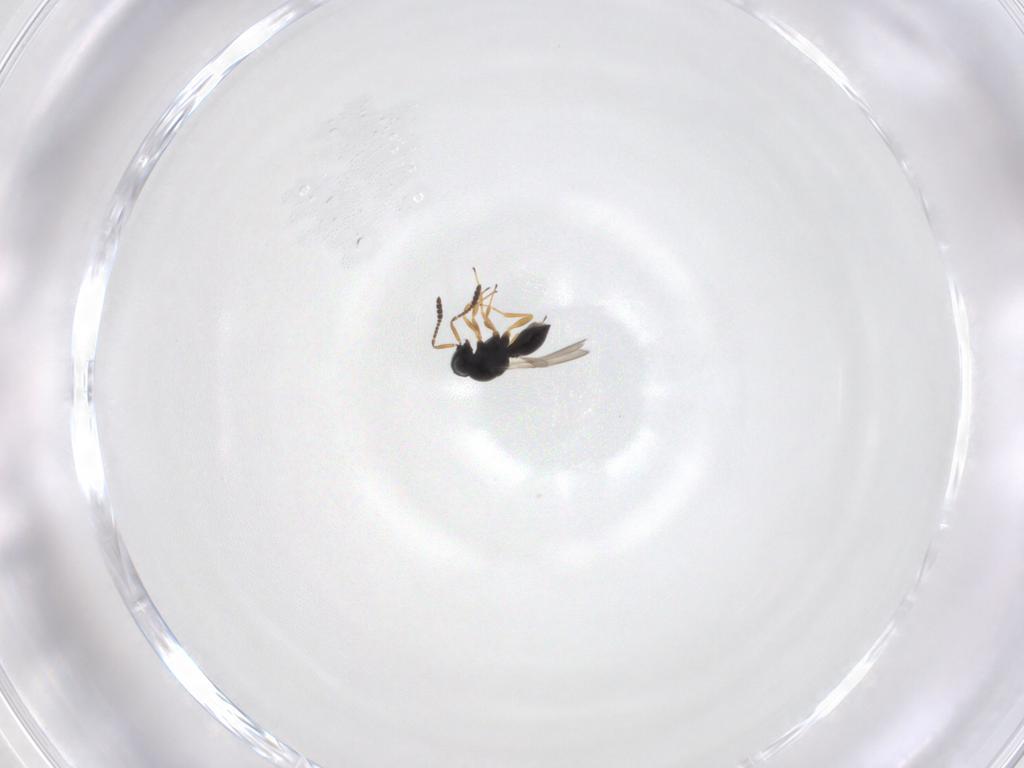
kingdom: Animalia
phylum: Arthropoda
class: Insecta
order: Hymenoptera
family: Scelionidae
